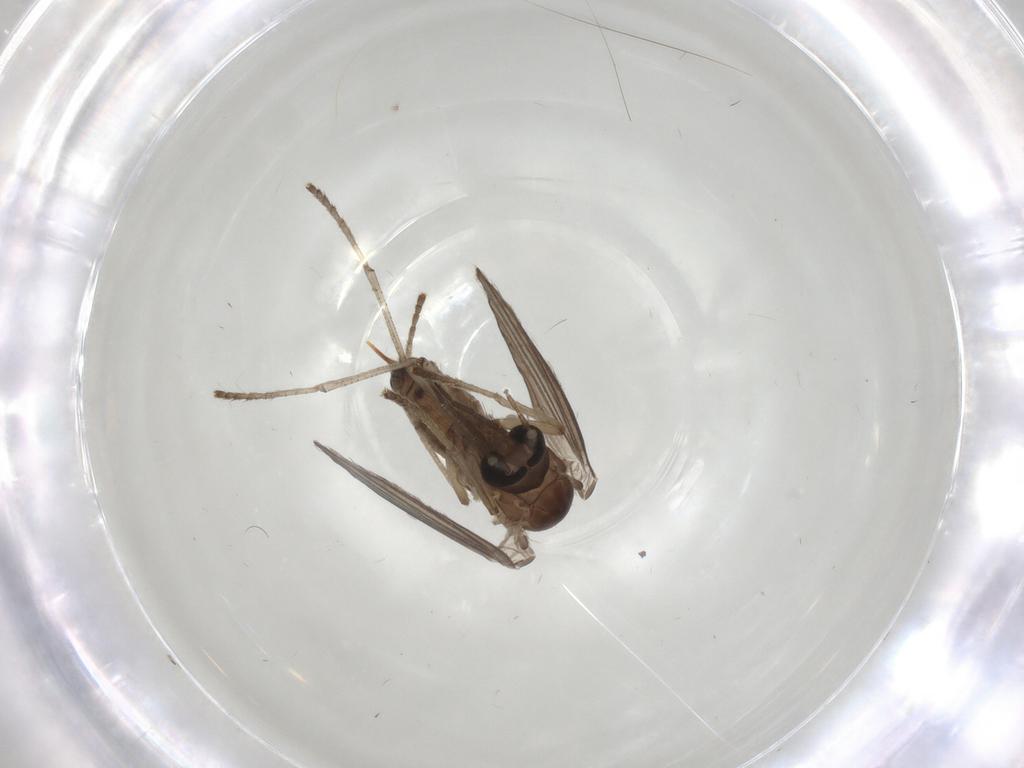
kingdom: Animalia
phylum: Arthropoda
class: Insecta
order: Diptera
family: Psychodidae
